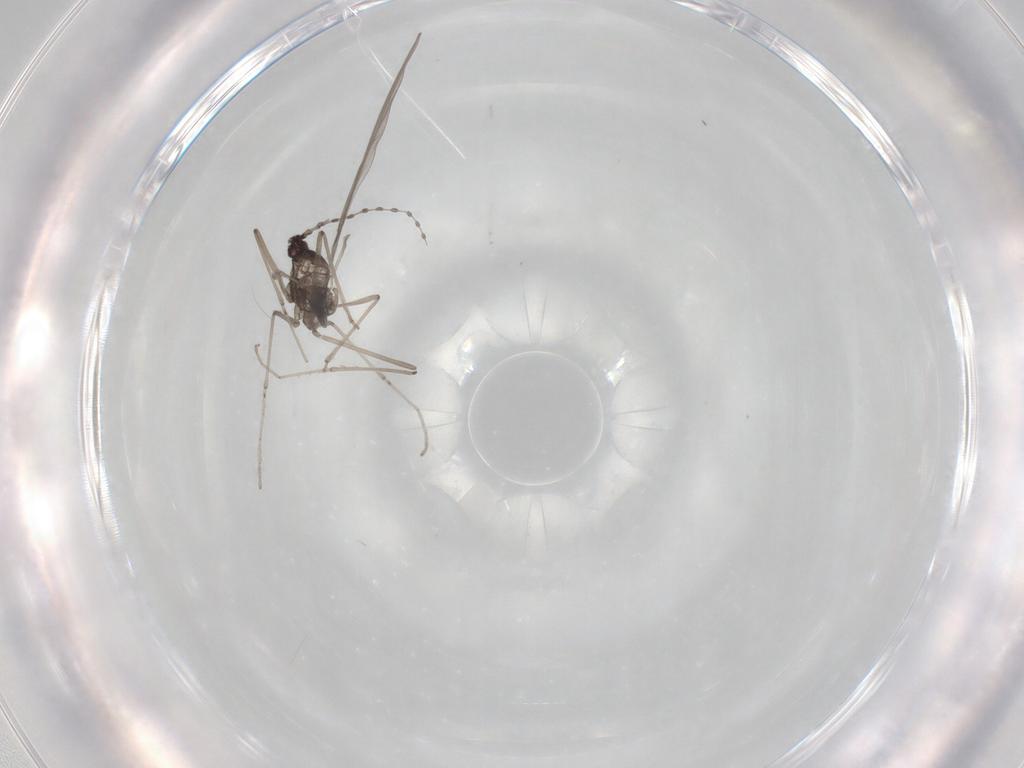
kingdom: Animalia
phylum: Arthropoda
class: Insecta
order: Diptera
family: Cecidomyiidae
